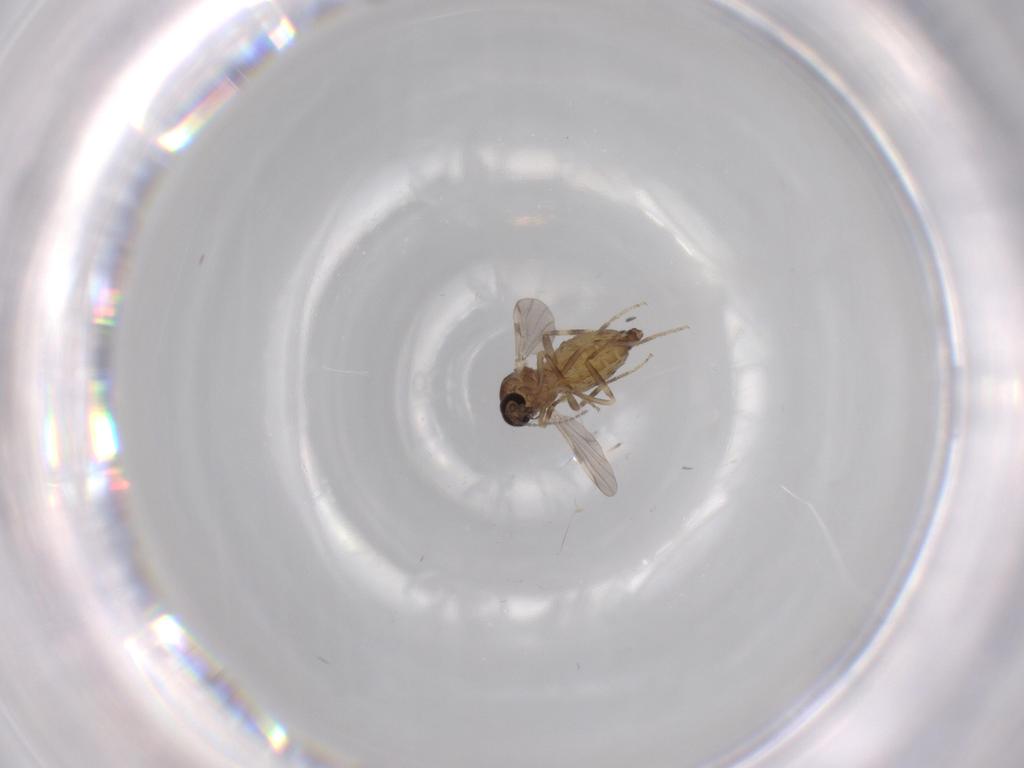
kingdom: Animalia
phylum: Arthropoda
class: Insecta
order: Diptera
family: Ceratopogonidae
